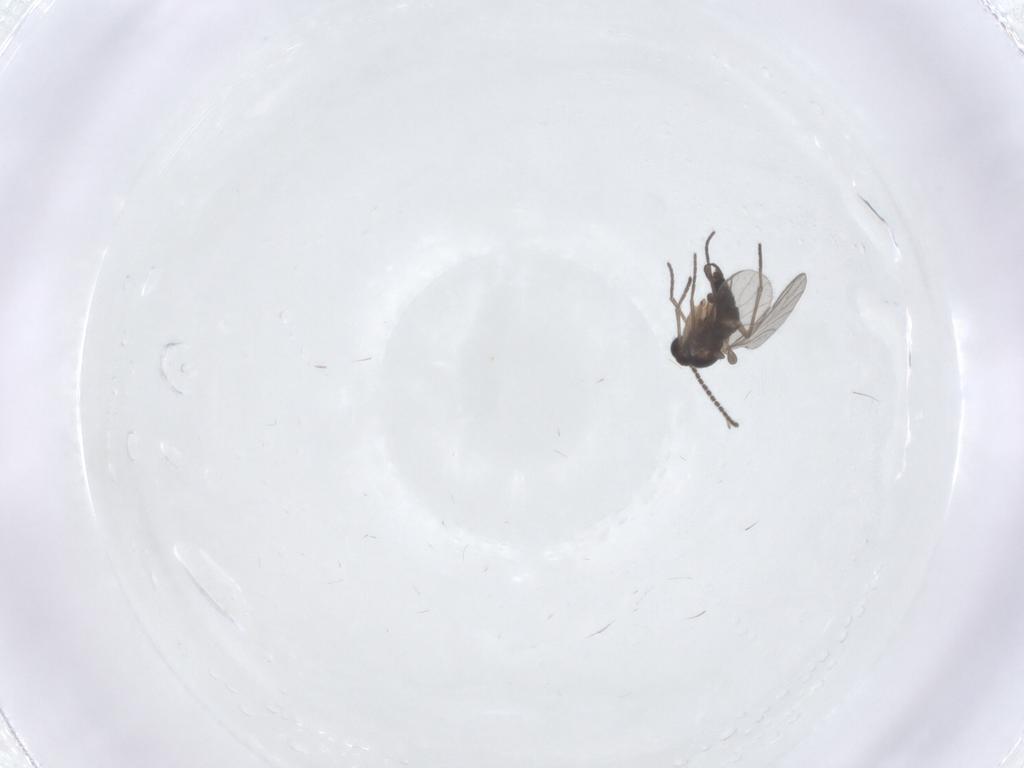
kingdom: Animalia
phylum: Arthropoda
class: Insecta
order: Diptera
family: Sciaridae
